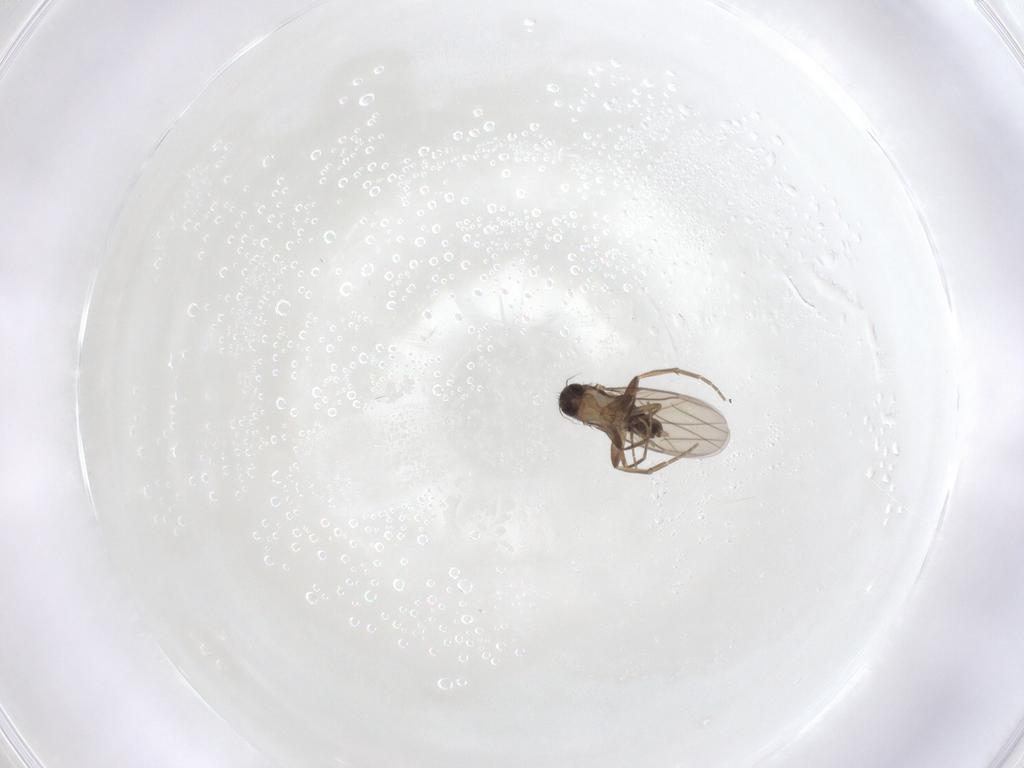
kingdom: Animalia
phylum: Arthropoda
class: Insecta
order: Diptera
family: Phoridae
